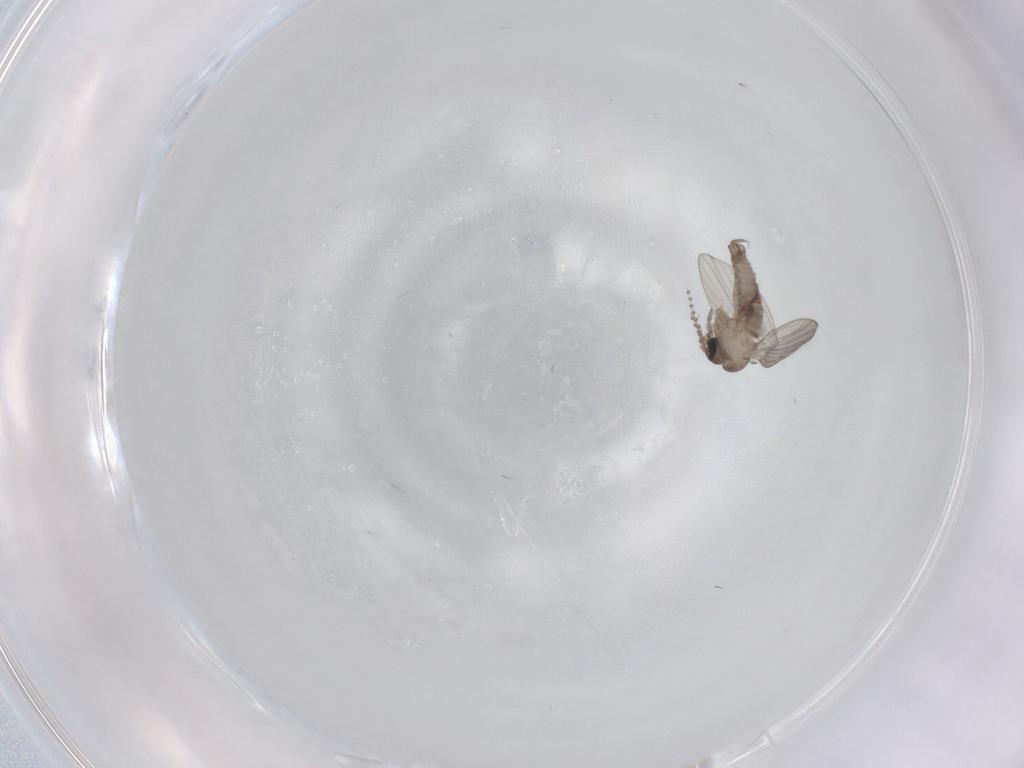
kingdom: Animalia
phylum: Arthropoda
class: Insecta
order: Diptera
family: Psychodidae
